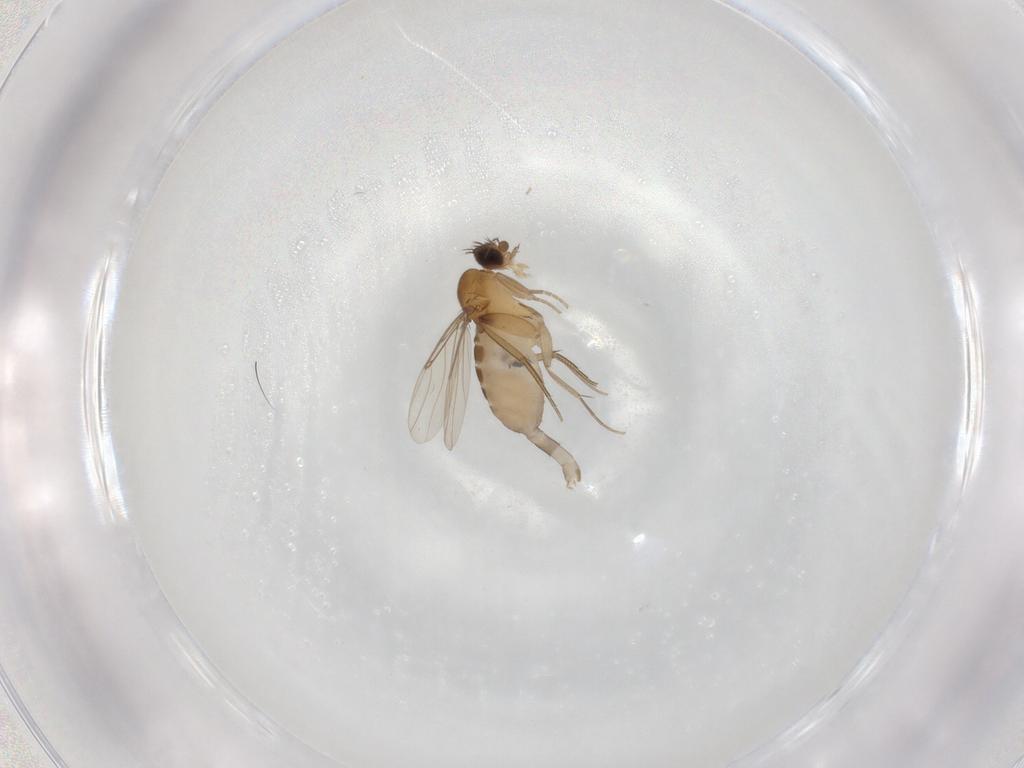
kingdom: Animalia
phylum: Arthropoda
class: Insecta
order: Diptera
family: Phoridae
